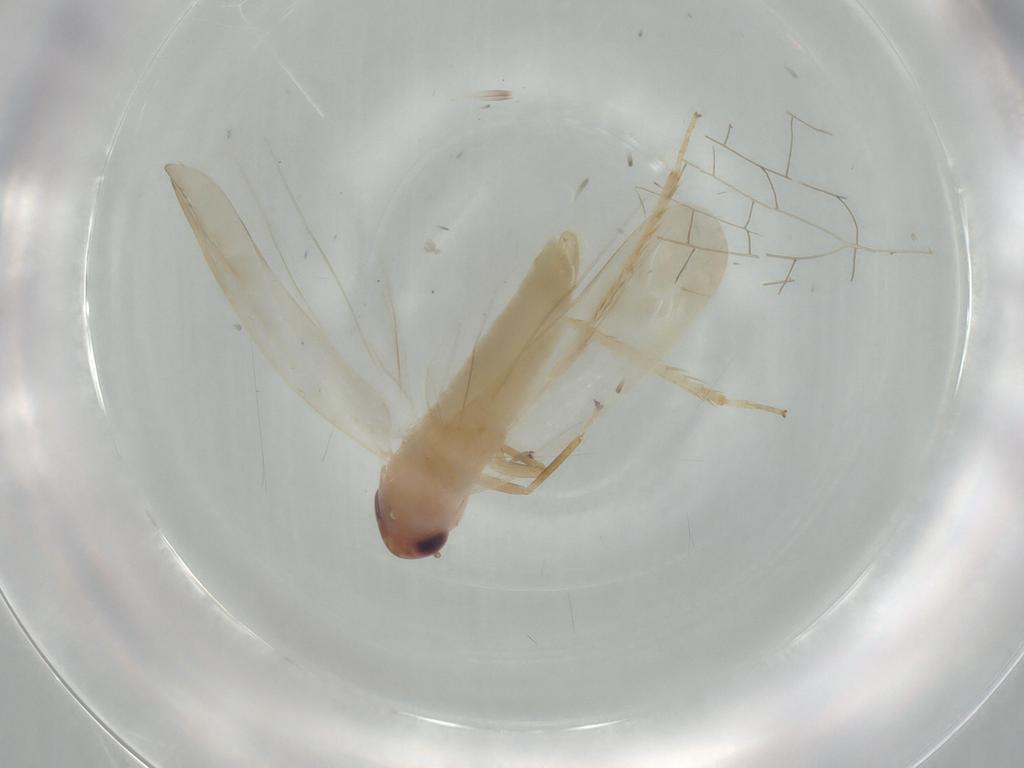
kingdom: Animalia
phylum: Arthropoda
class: Insecta
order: Hemiptera
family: Cicadellidae
